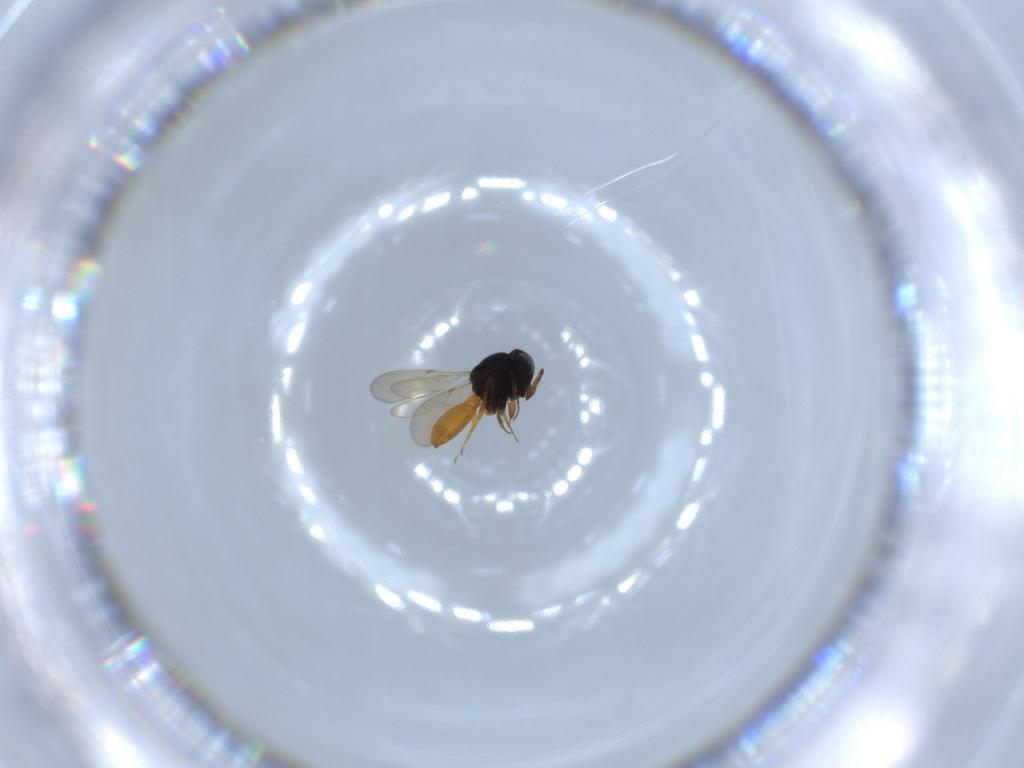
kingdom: Animalia
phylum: Arthropoda
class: Insecta
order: Hymenoptera
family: Scelionidae
